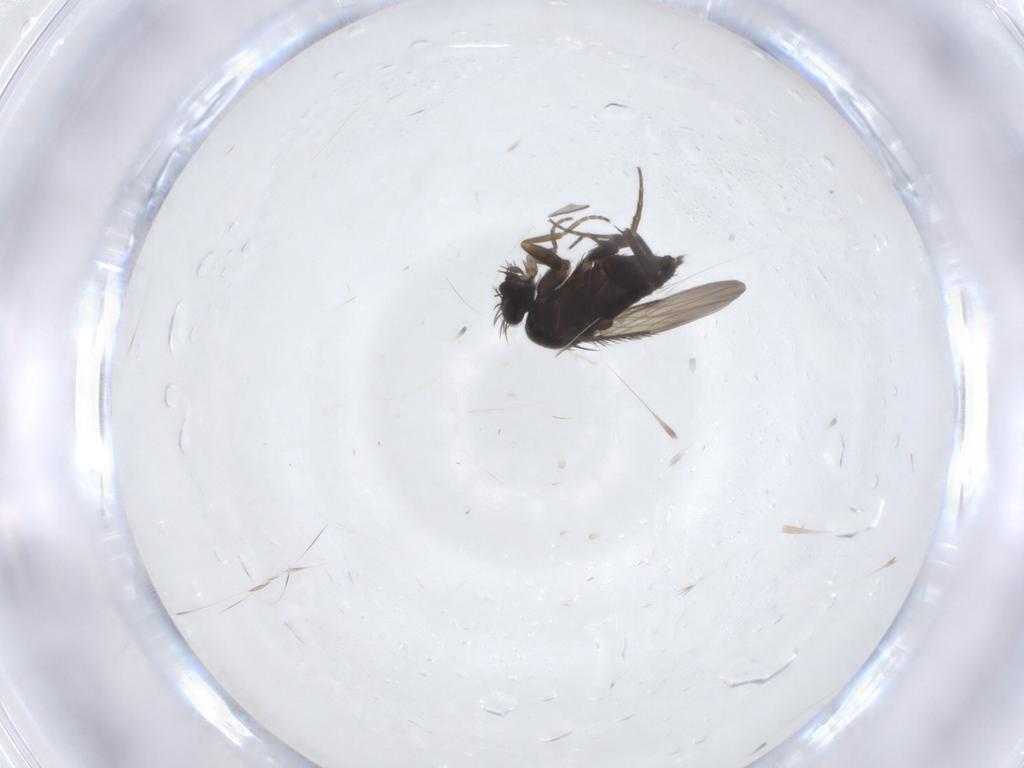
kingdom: Animalia
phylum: Arthropoda
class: Insecta
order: Diptera
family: Phoridae
